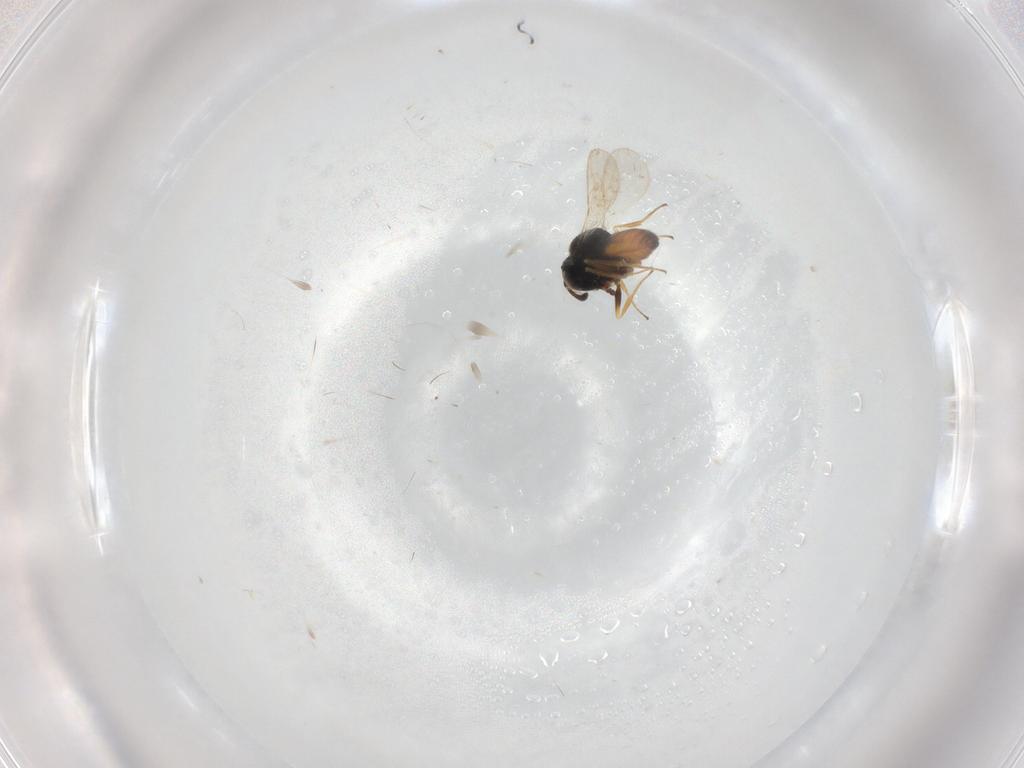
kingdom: Animalia
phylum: Arthropoda
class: Insecta
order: Hymenoptera
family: Scelionidae
